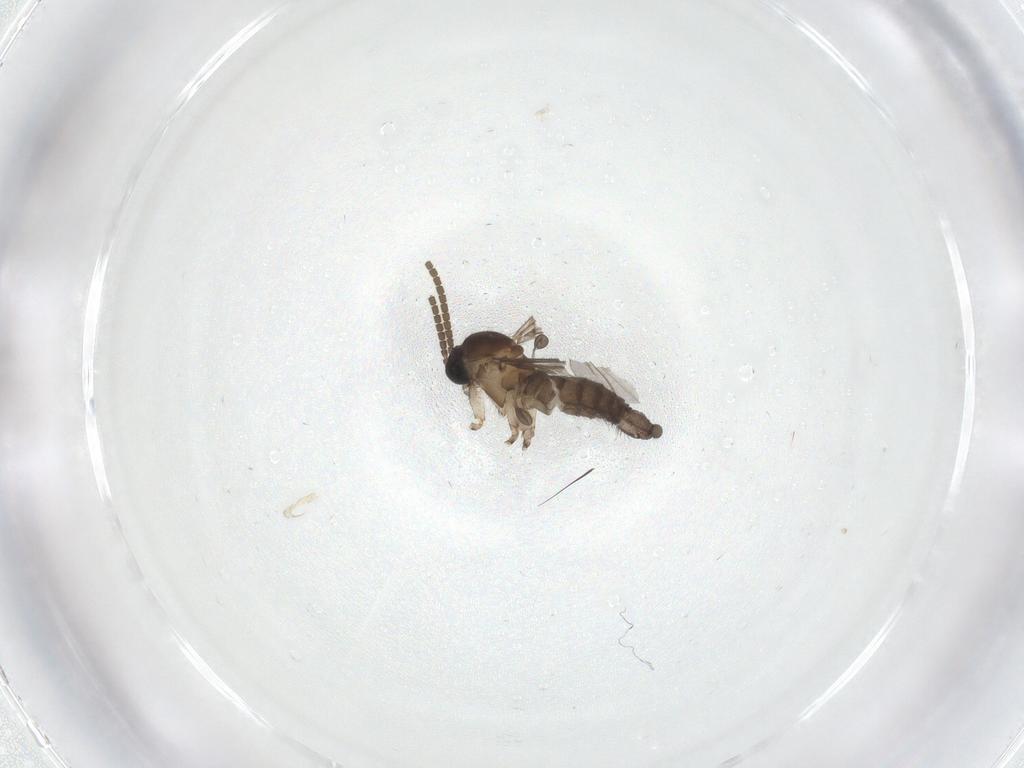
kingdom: Animalia
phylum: Arthropoda
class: Insecta
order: Diptera
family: Cecidomyiidae
